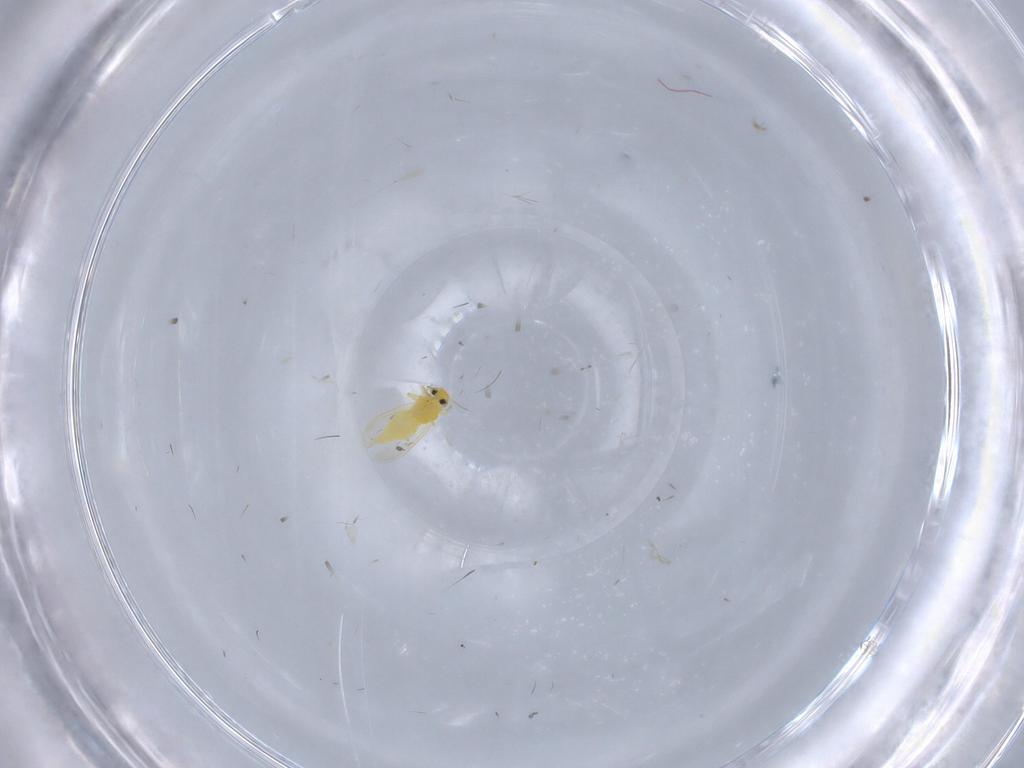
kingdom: Animalia
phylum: Arthropoda
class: Insecta
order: Hemiptera
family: Aleyrodidae
